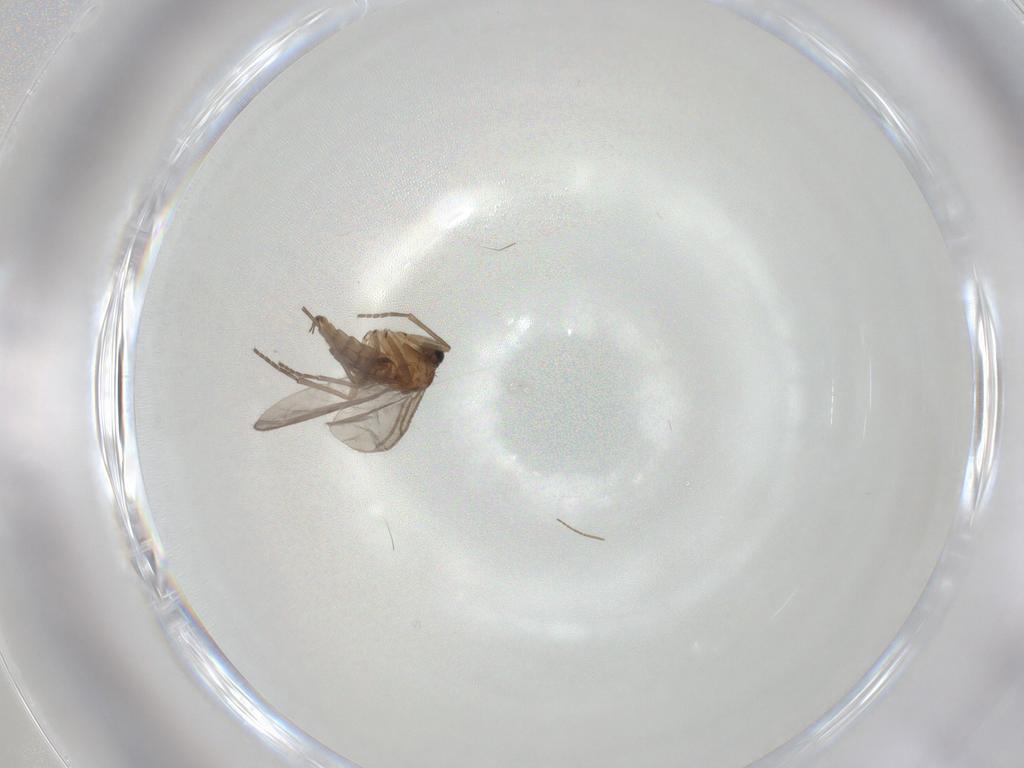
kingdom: Animalia
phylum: Arthropoda
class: Insecta
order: Diptera
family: Sciaridae
